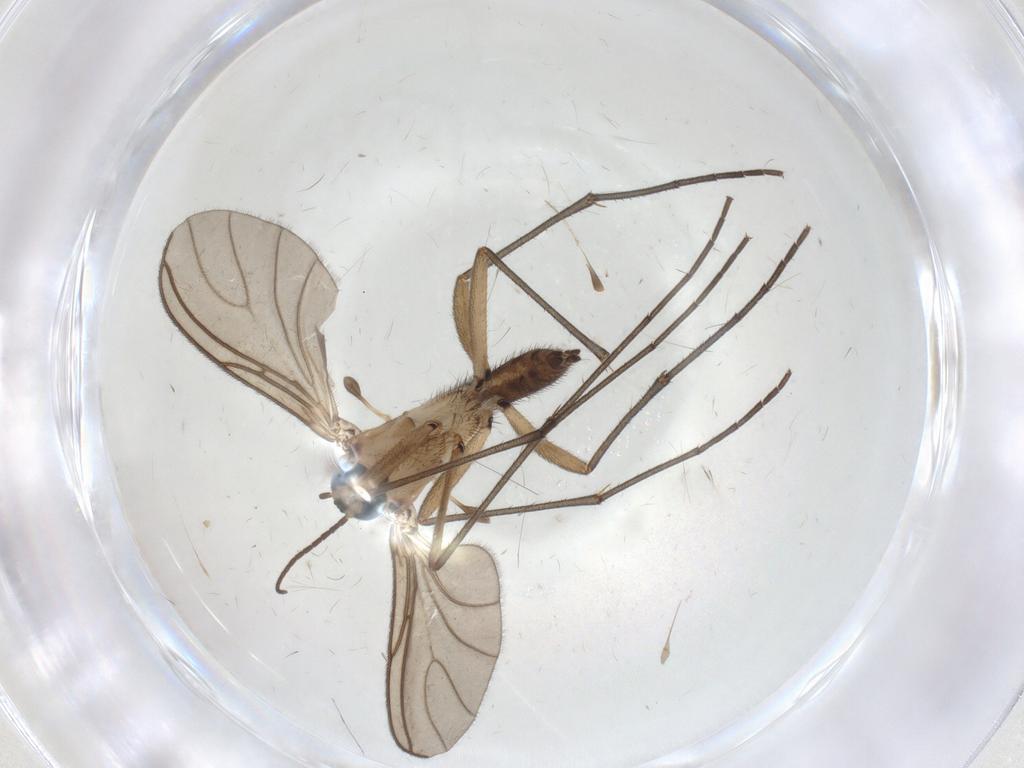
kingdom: Animalia
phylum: Arthropoda
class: Insecta
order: Diptera
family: Sciaridae
